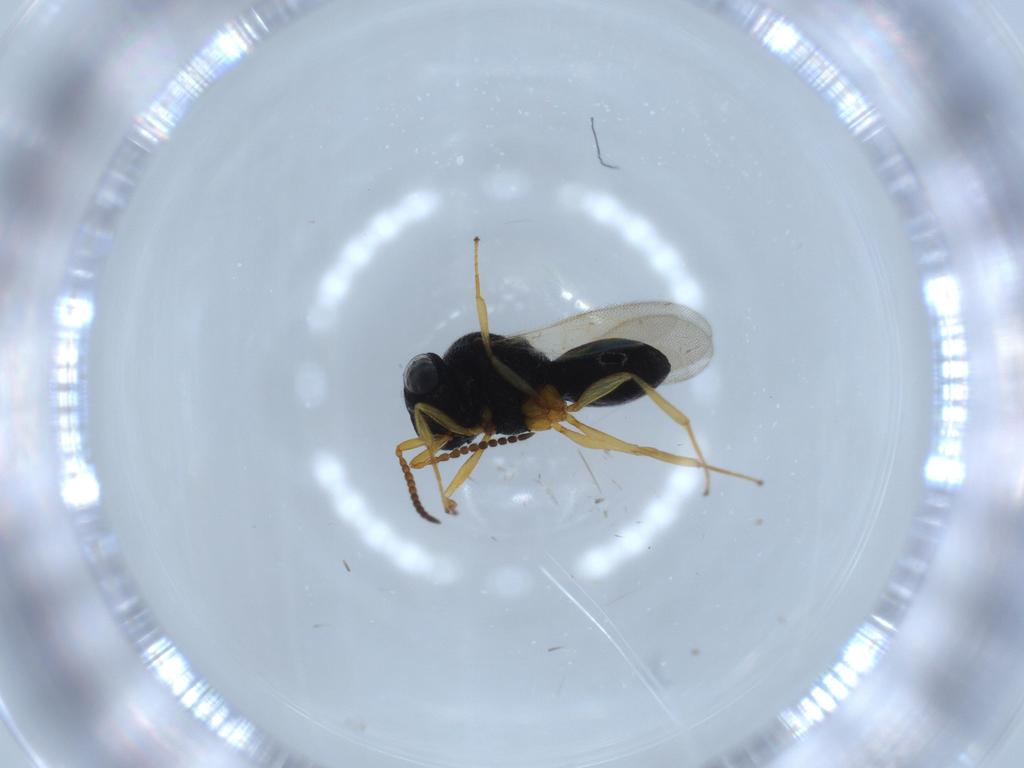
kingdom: Animalia
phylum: Arthropoda
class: Insecta
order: Hymenoptera
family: Scelionidae
